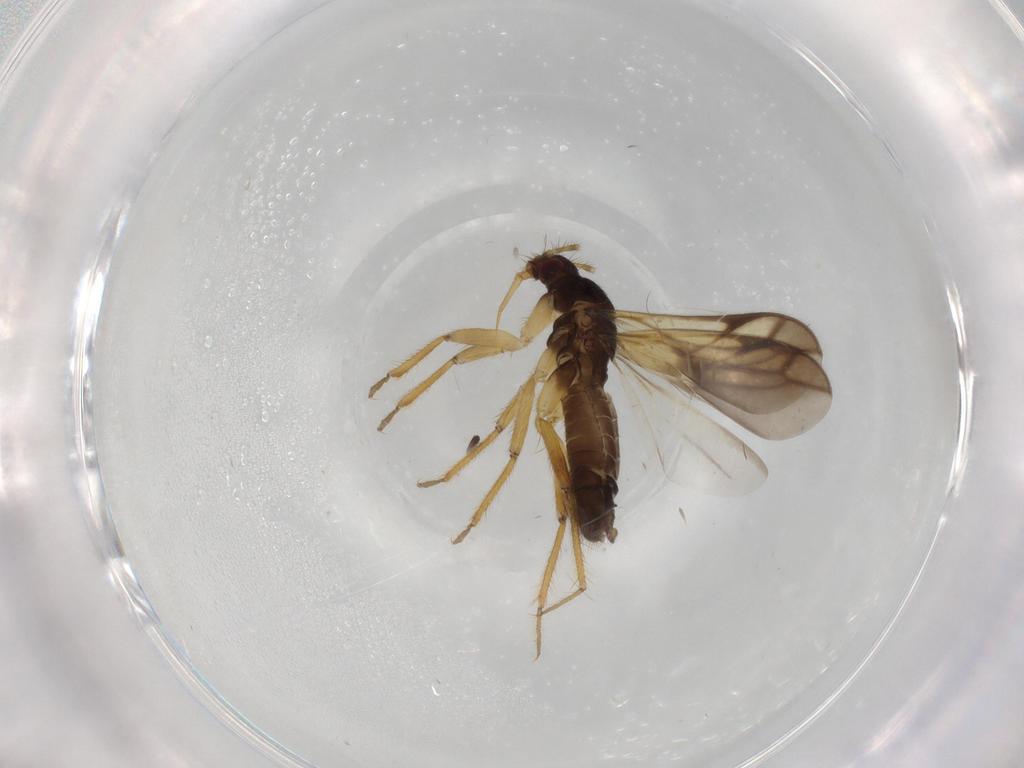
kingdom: Animalia
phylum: Arthropoda
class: Insecta
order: Hemiptera
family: Ceratocombidae
